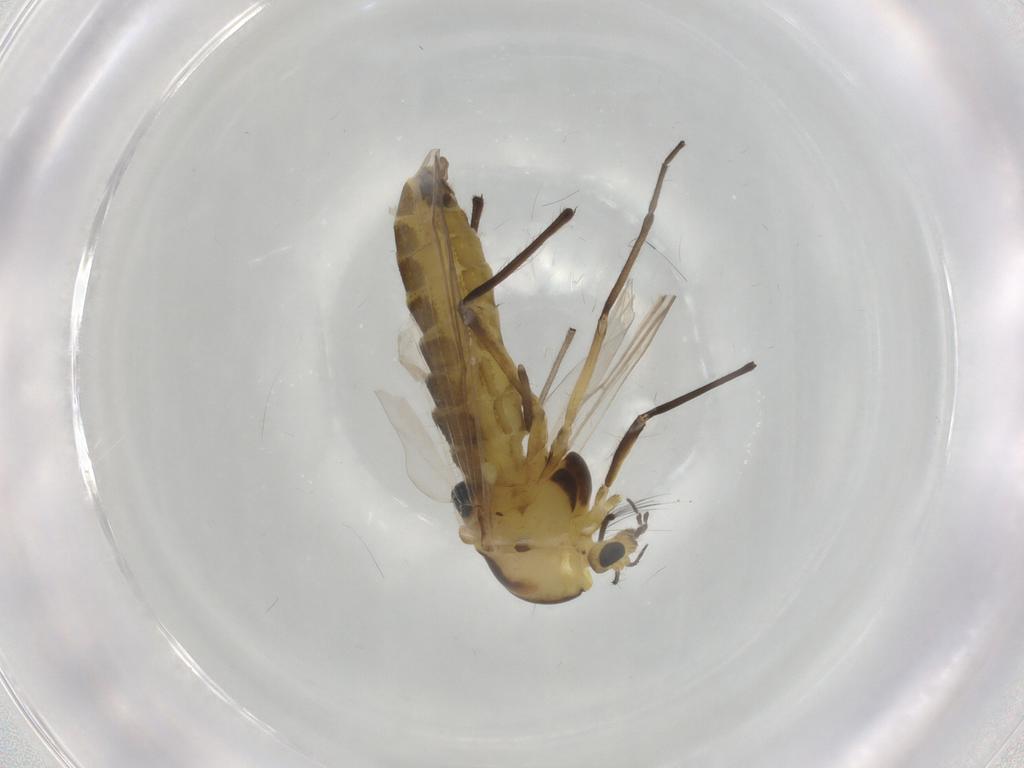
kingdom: Animalia
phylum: Arthropoda
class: Insecta
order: Diptera
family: Chironomidae
